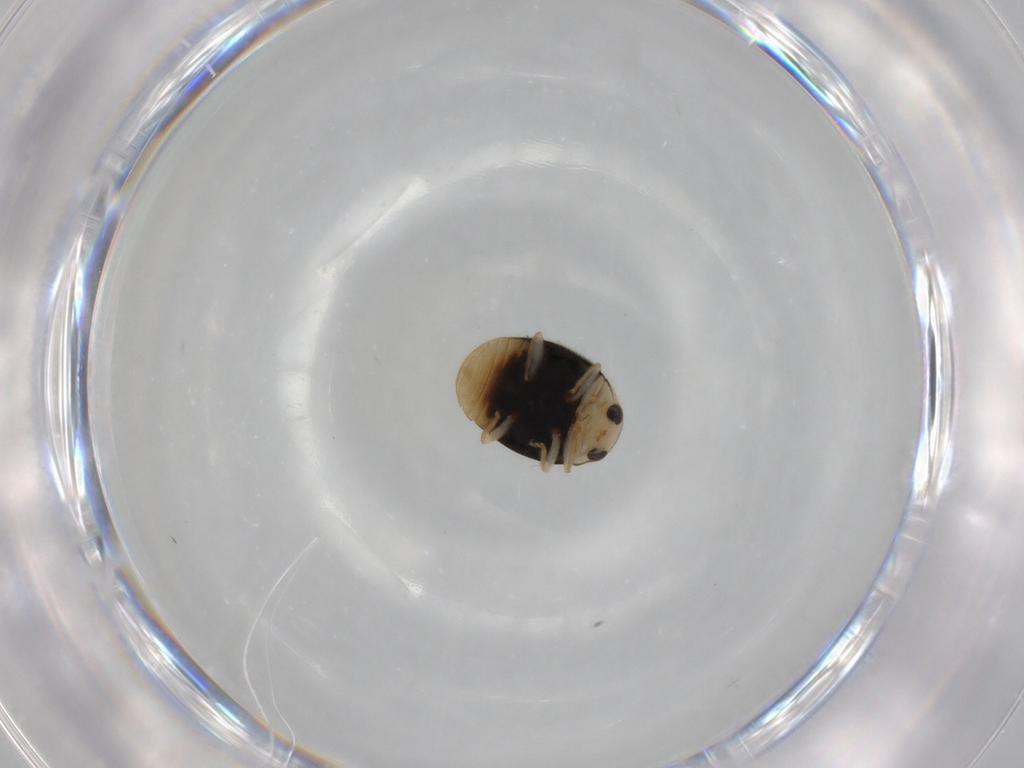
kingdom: Animalia
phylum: Arthropoda
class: Insecta
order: Coleoptera
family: Coccinellidae
